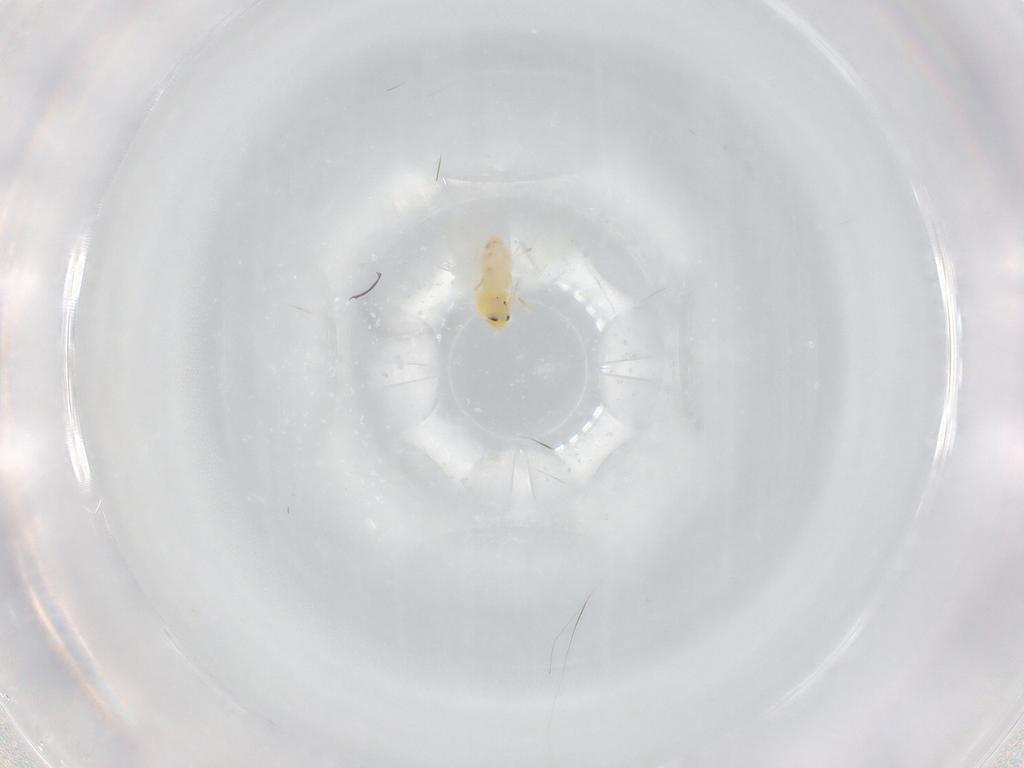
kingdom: Animalia
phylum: Arthropoda
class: Insecta
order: Hemiptera
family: Aleyrodidae
